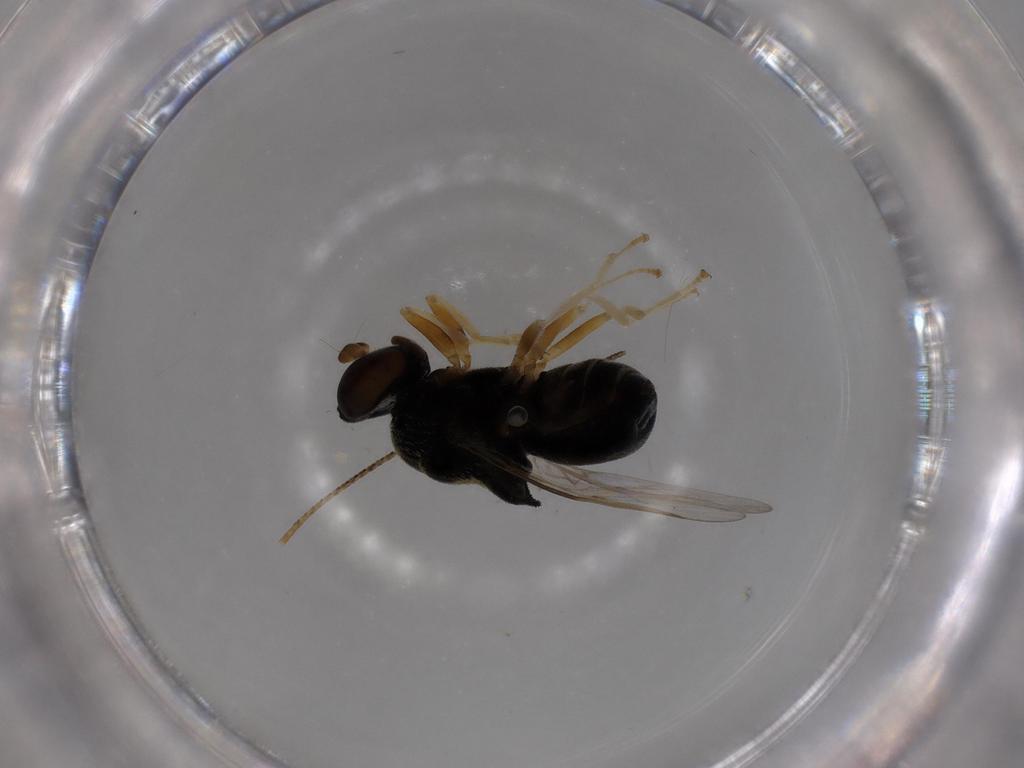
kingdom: Animalia
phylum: Arthropoda
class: Insecta
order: Diptera
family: Stratiomyidae
